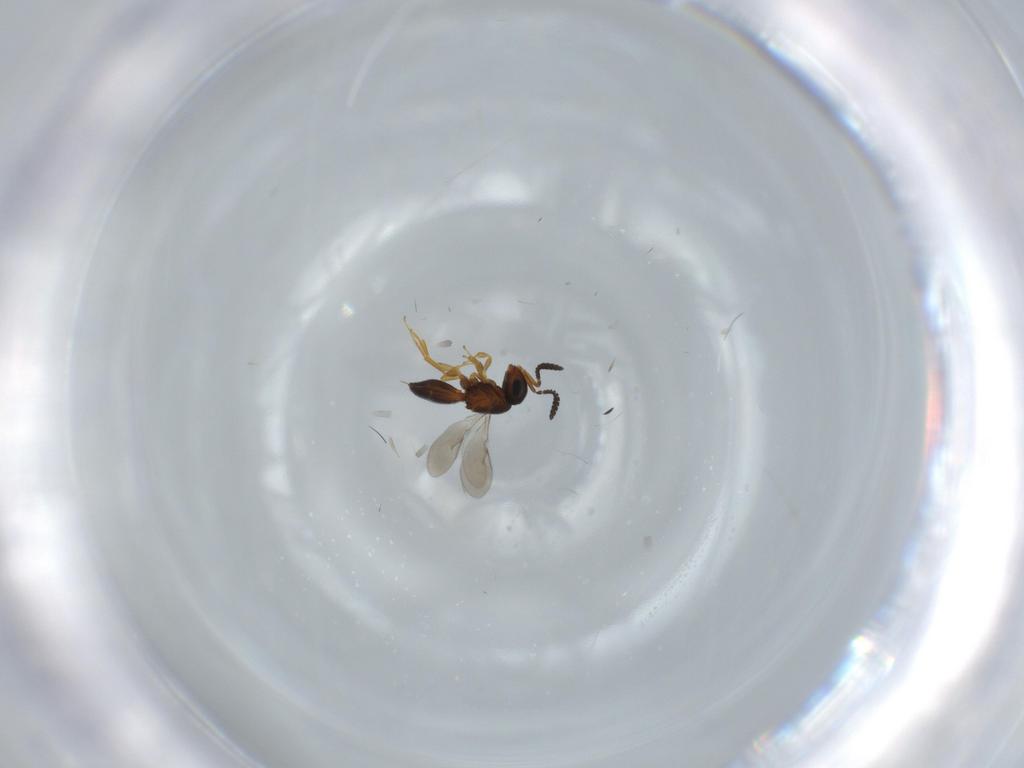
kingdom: Animalia
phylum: Arthropoda
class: Insecta
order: Hymenoptera
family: Scelionidae
